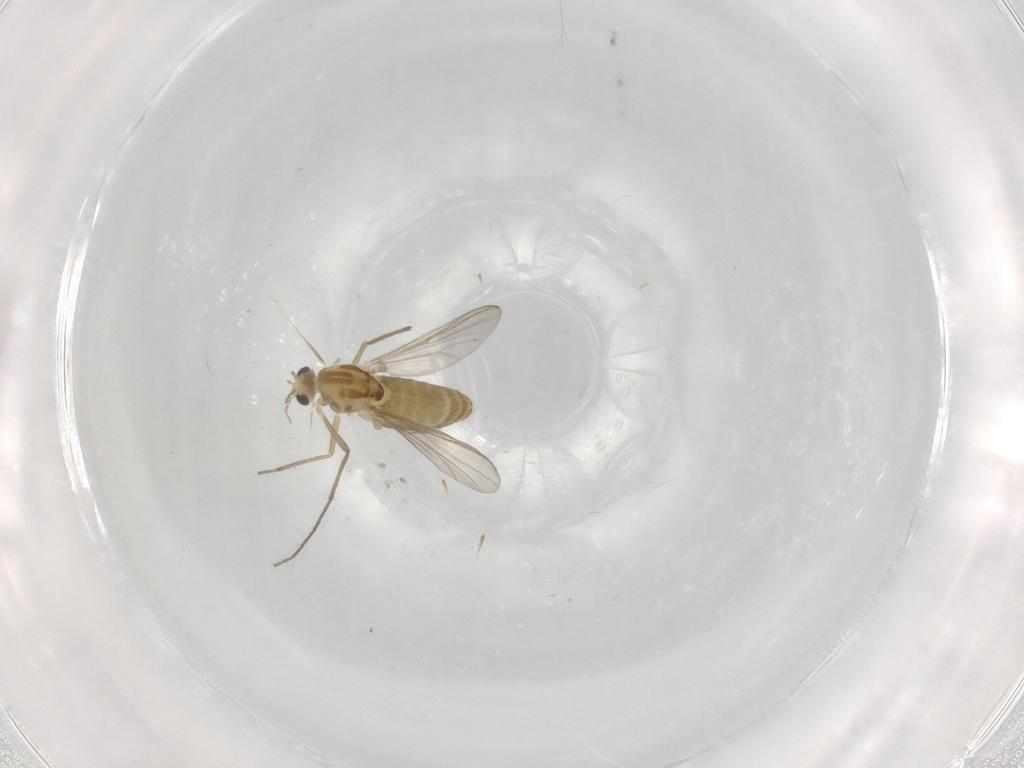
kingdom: Animalia
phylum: Arthropoda
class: Insecta
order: Diptera
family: Chironomidae
